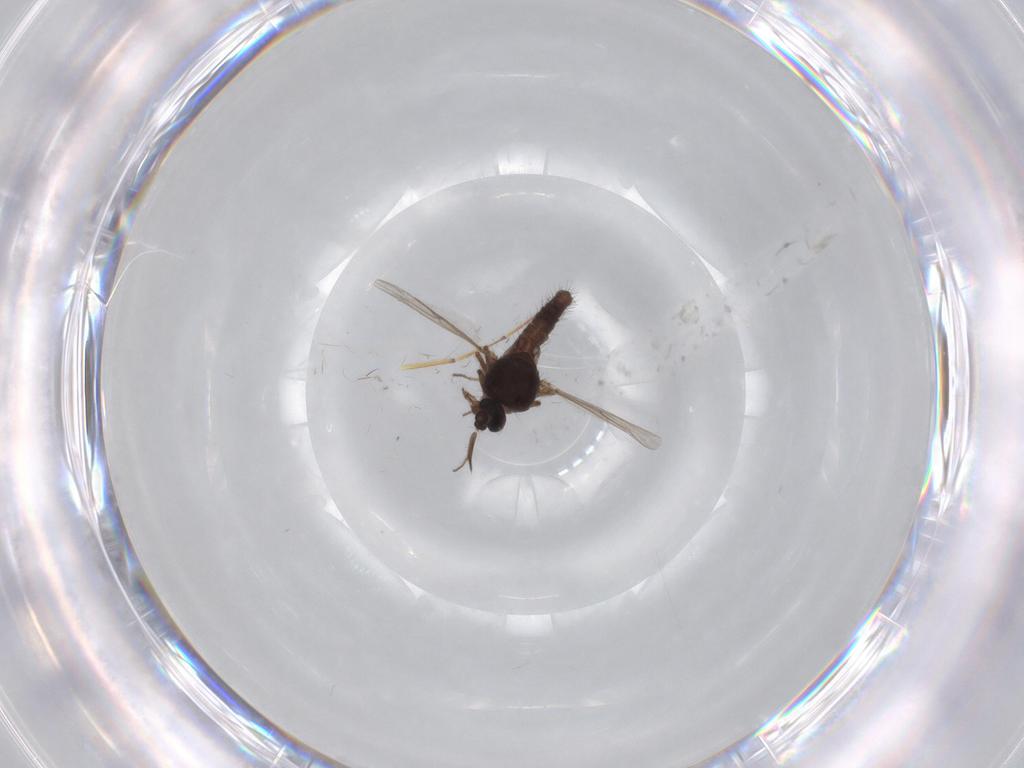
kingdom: Animalia
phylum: Arthropoda
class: Insecta
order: Diptera
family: Ceratopogonidae
